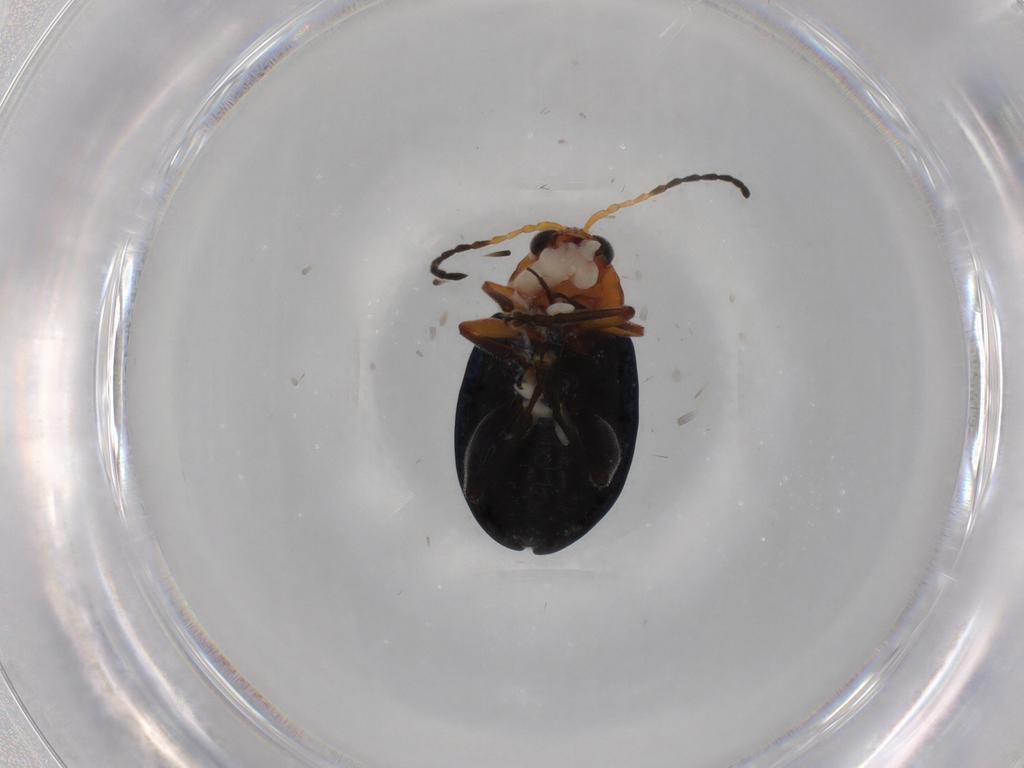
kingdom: Animalia
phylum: Arthropoda
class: Insecta
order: Coleoptera
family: Chrysomelidae
